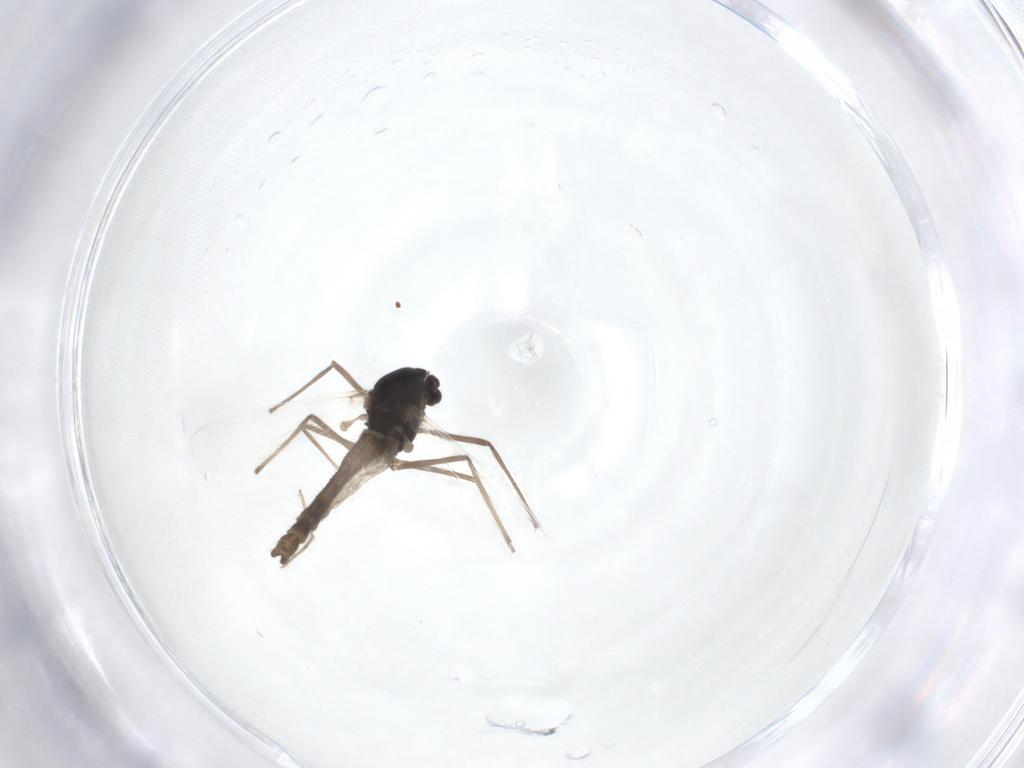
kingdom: Animalia
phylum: Arthropoda
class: Insecta
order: Diptera
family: Chironomidae
